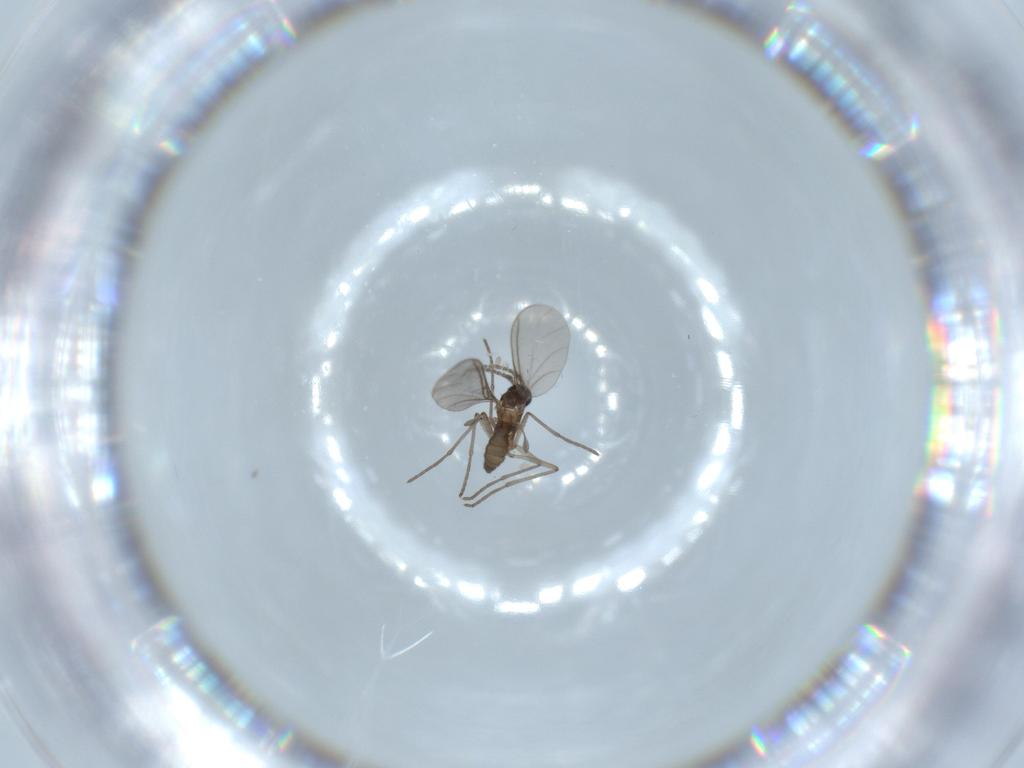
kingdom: Animalia
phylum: Arthropoda
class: Insecta
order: Diptera
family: Sciaridae
